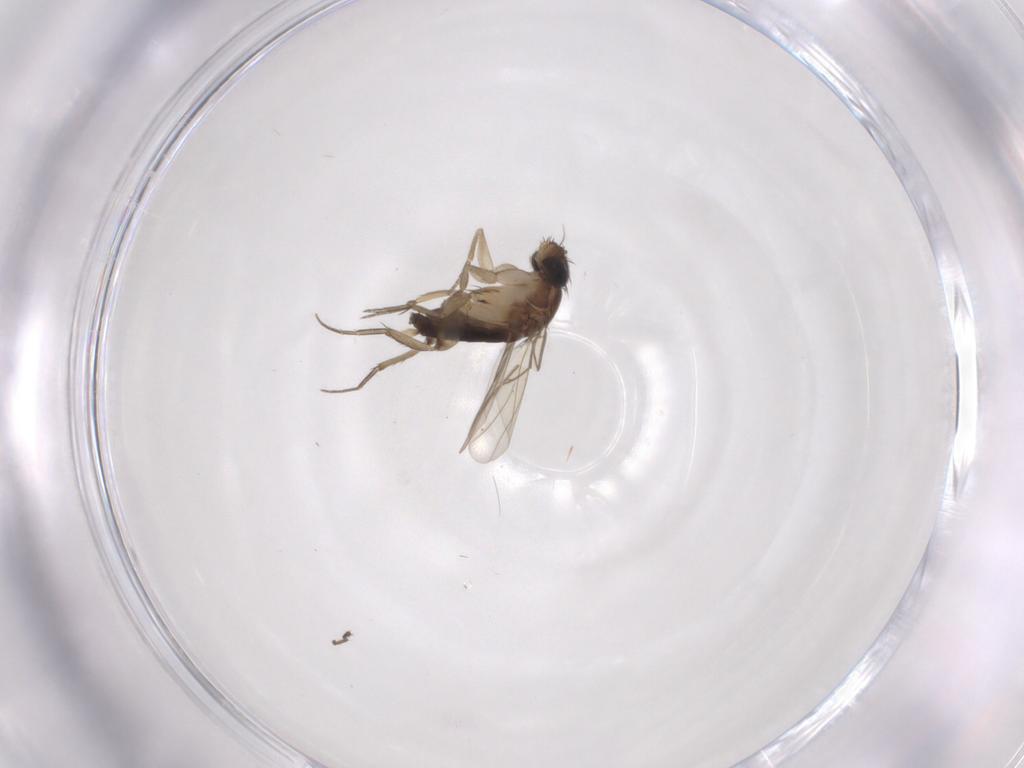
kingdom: Animalia
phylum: Arthropoda
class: Insecta
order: Diptera
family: Phoridae
